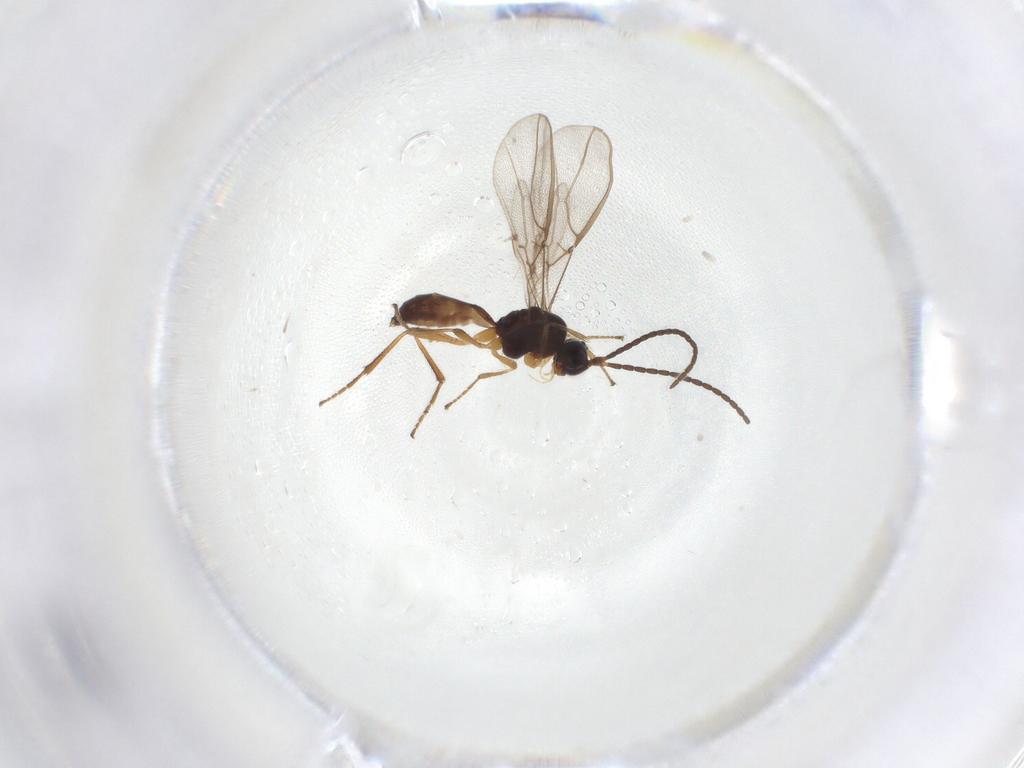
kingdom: Animalia
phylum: Arthropoda
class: Insecta
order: Hymenoptera
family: Braconidae
